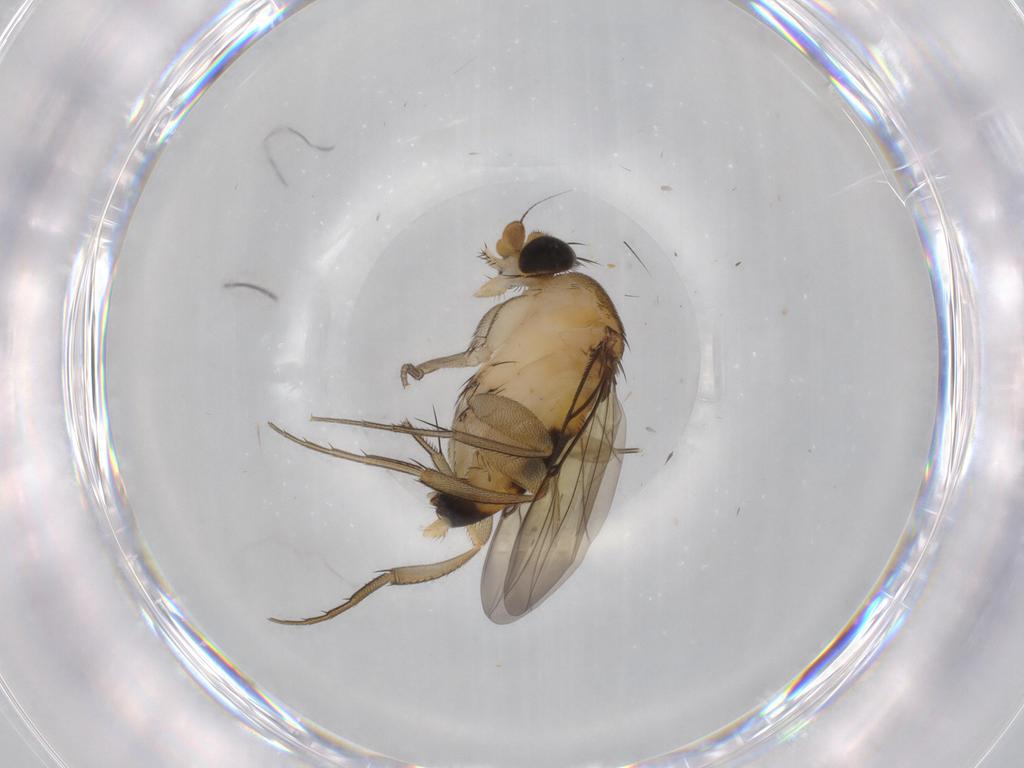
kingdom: Animalia
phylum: Arthropoda
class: Insecta
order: Diptera
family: Phoridae
